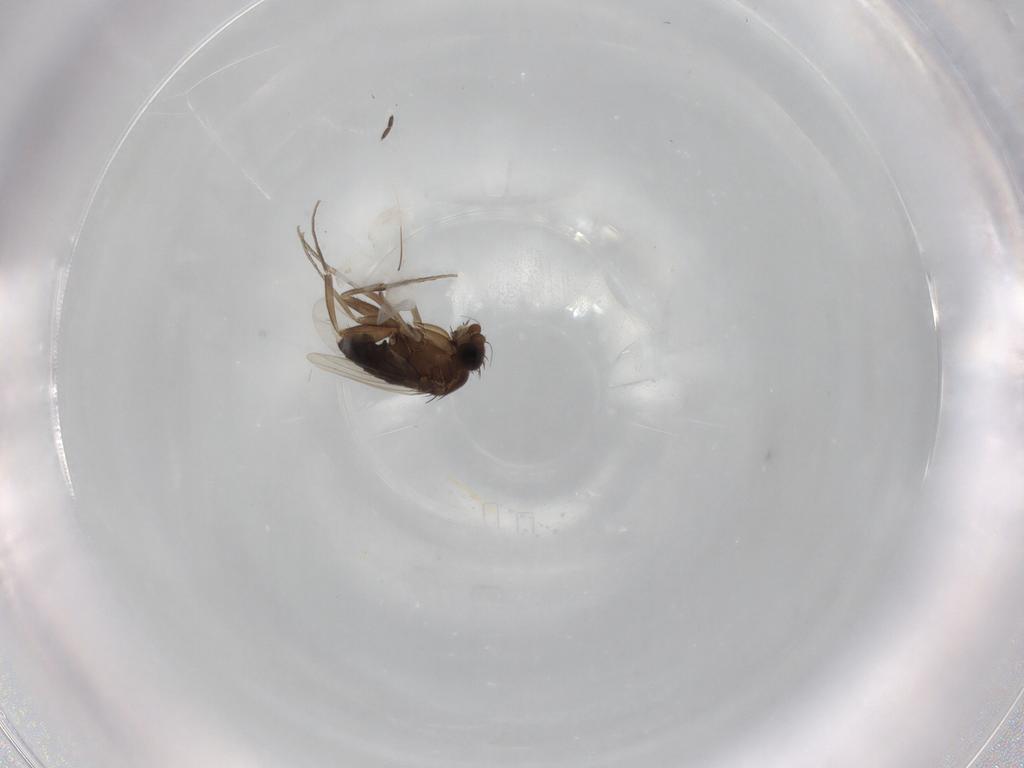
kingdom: Animalia
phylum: Arthropoda
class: Insecta
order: Diptera
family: Phoridae
